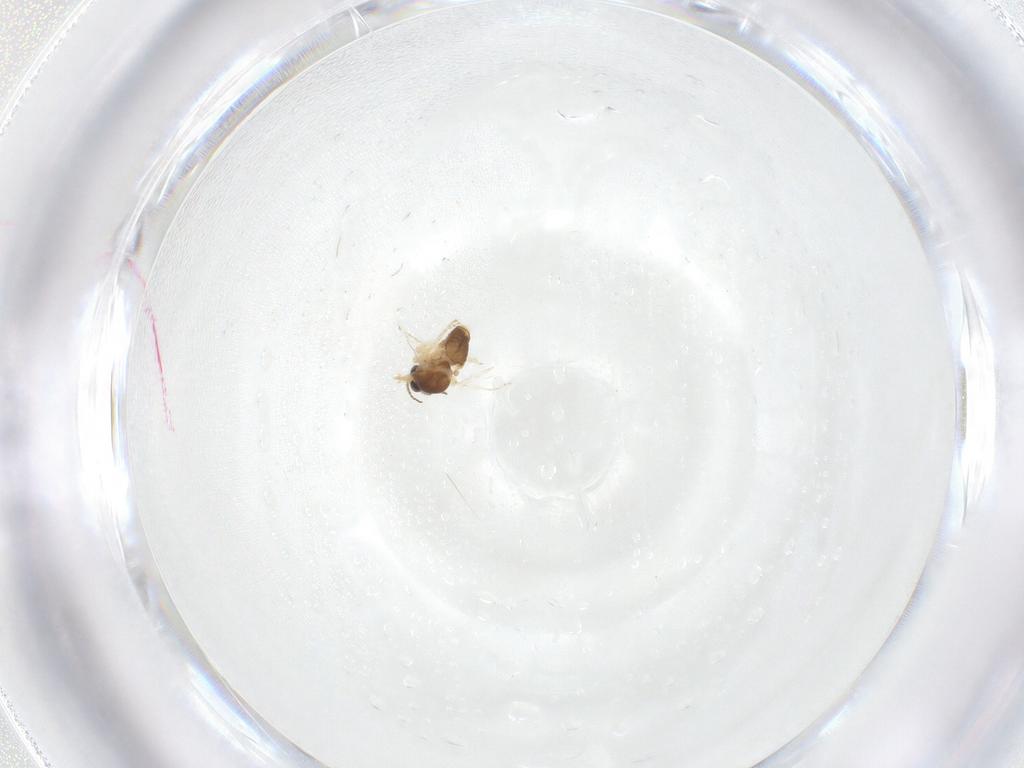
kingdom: Animalia
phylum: Arthropoda
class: Insecta
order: Diptera
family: Ceratopogonidae
